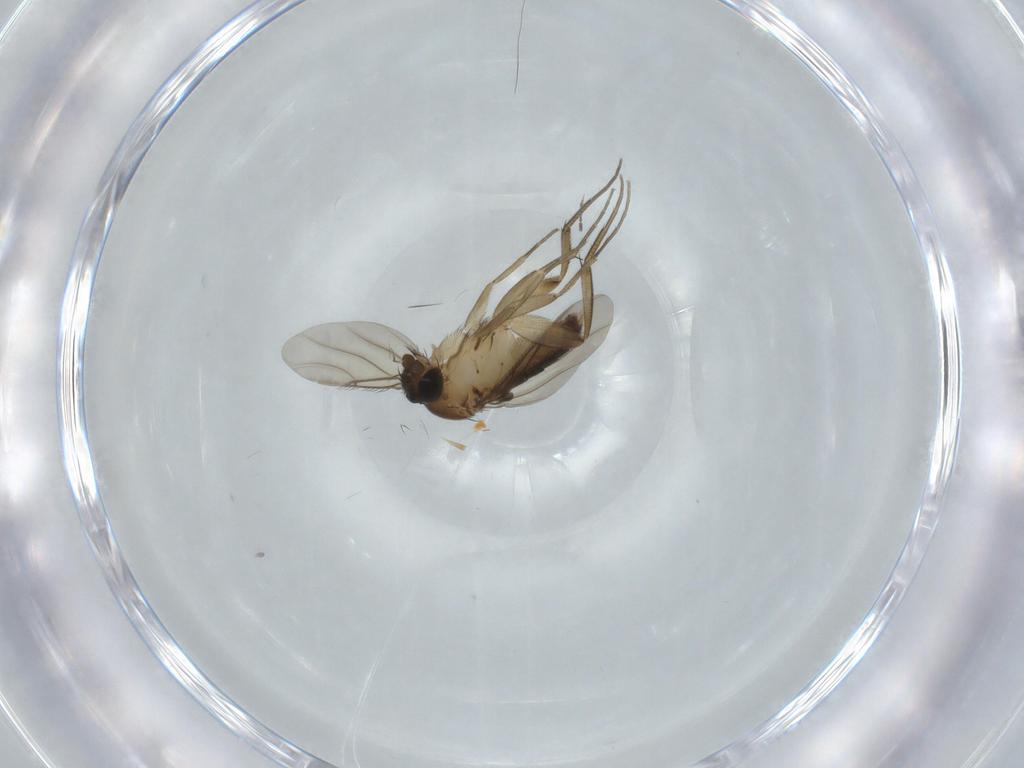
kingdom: Animalia
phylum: Arthropoda
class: Insecta
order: Diptera
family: Phoridae
